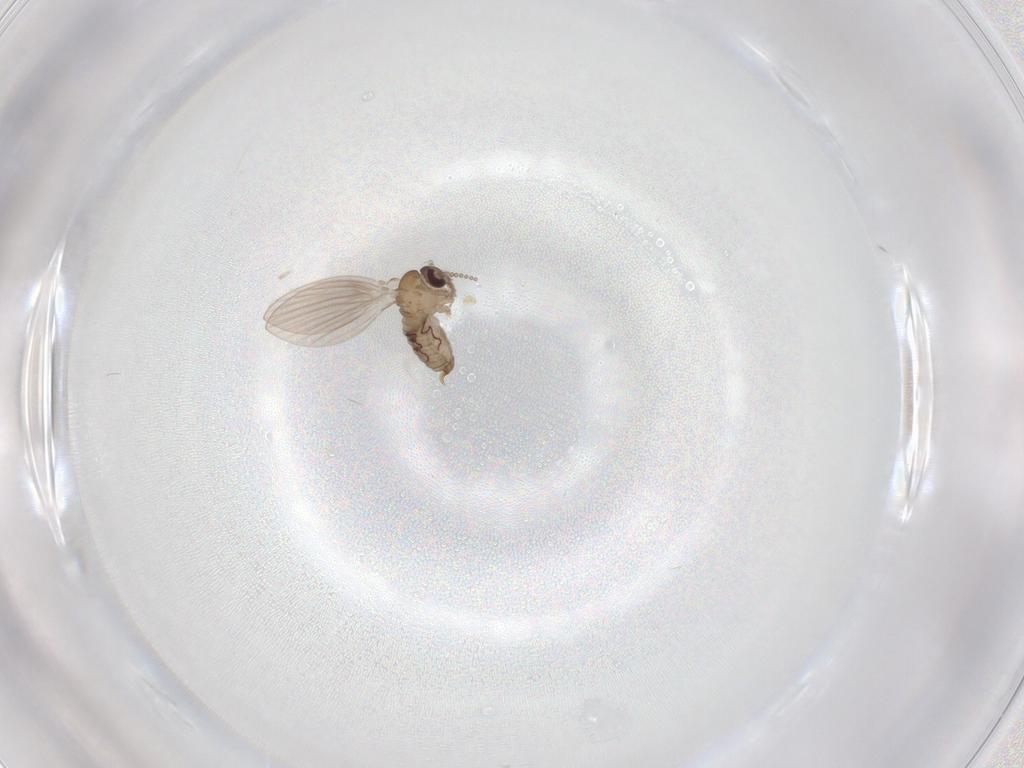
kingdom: Animalia
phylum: Arthropoda
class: Insecta
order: Diptera
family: Psychodidae
